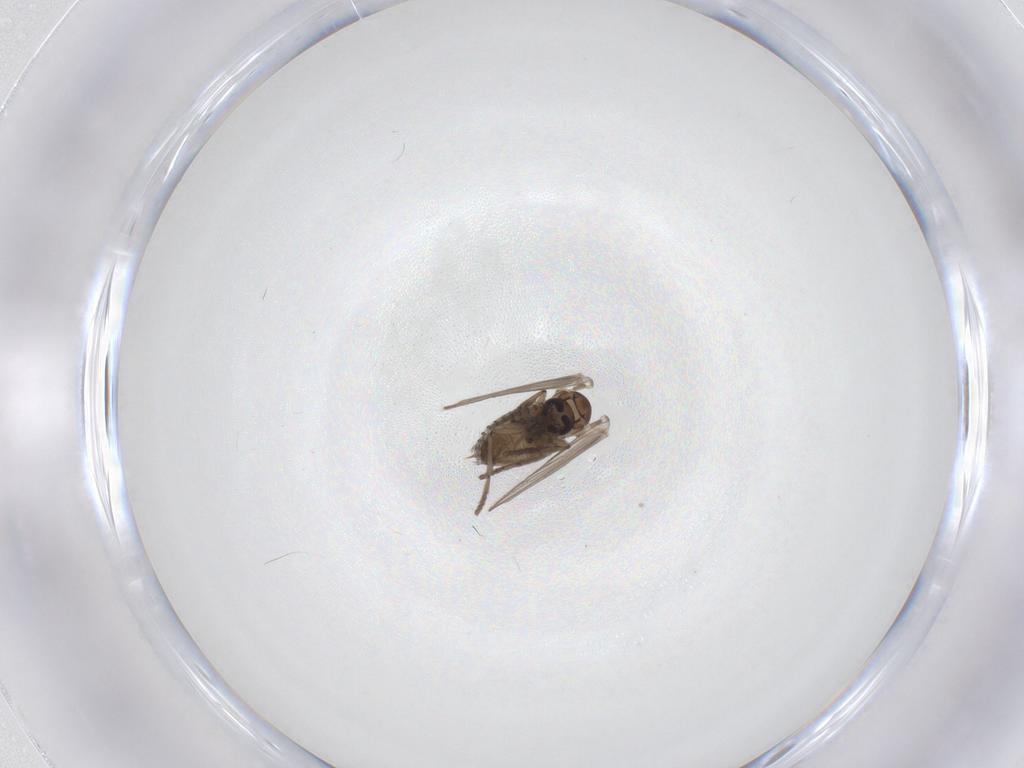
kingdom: Animalia
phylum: Arthropoda
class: Insecta
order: Diptera
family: Psychodidae
